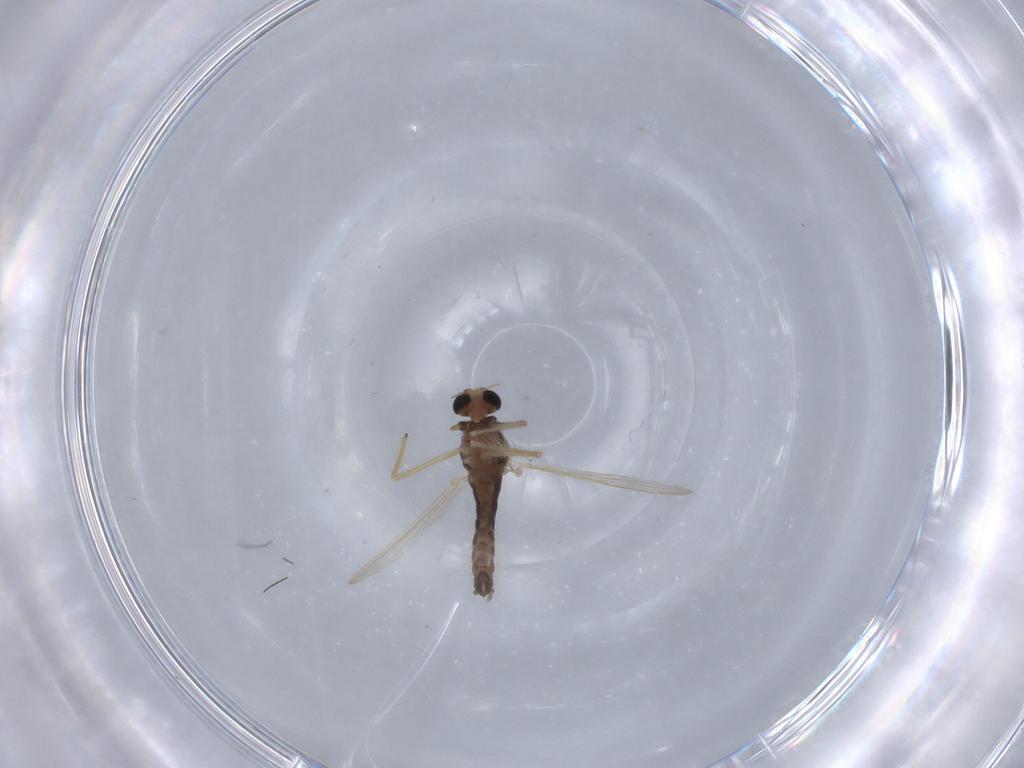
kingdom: Animalia
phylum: Arthropoda
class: Insecta
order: Diptera
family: Chironomidae
